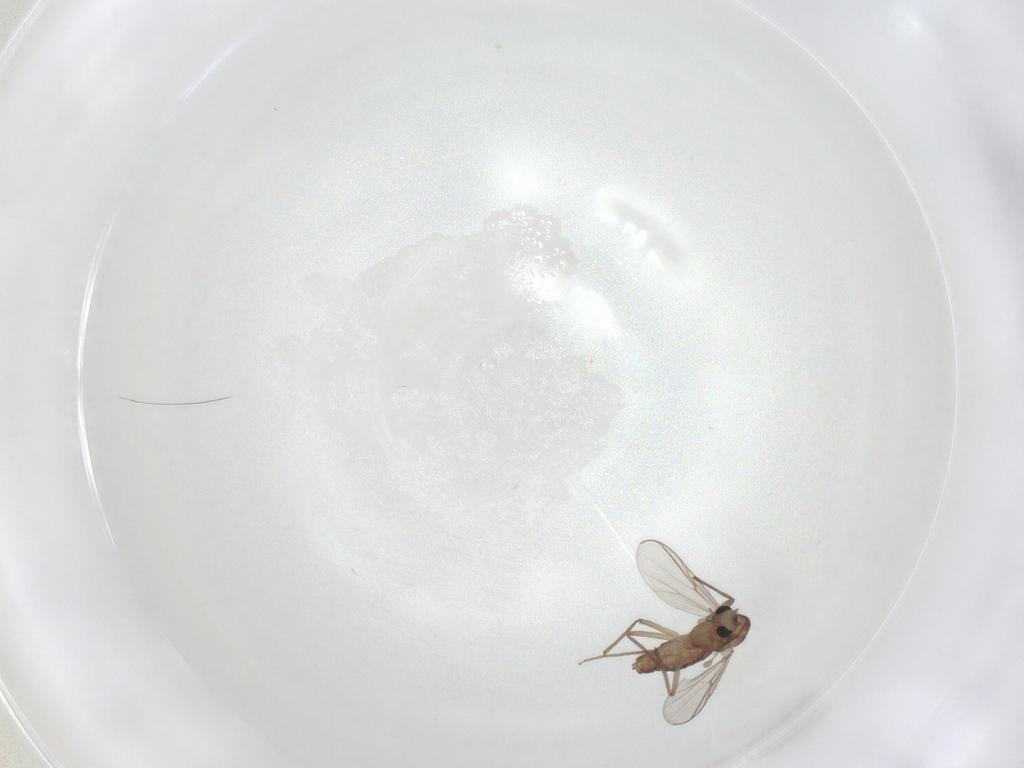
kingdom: Animalia
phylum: Arthropoda
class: Insecta
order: Diptera
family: Chironomidae
